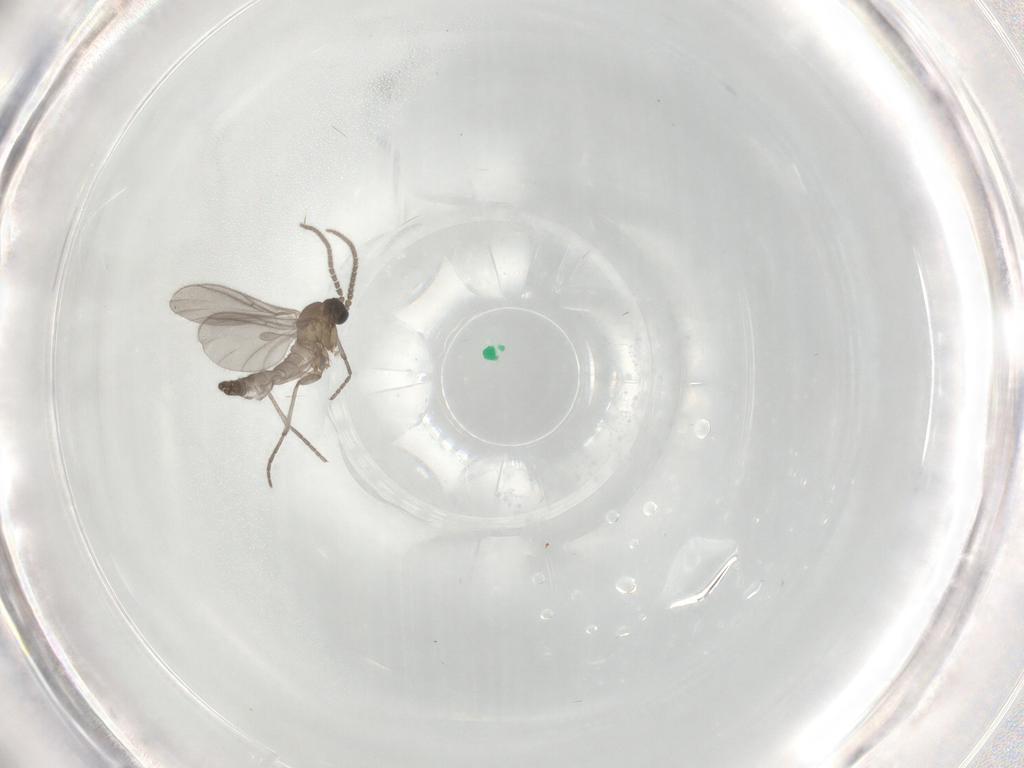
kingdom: Animalia
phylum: Arthropoda
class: Insecta
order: Diptera
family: Sciaridae
